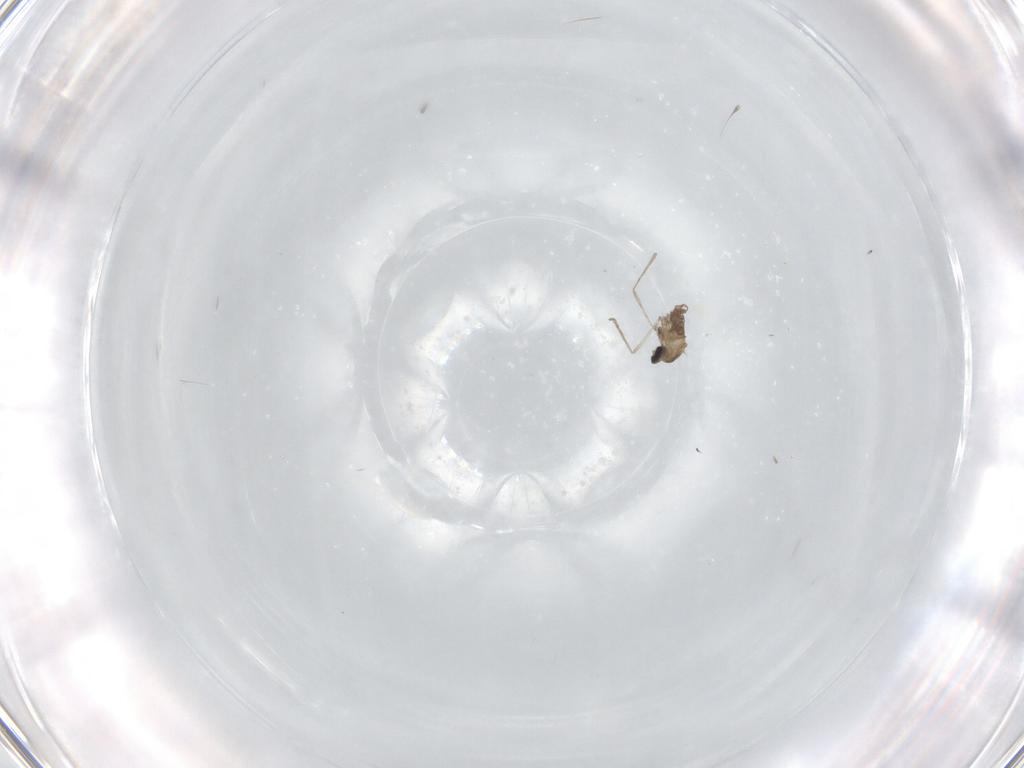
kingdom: Animalia
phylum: Arthropoda
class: Insecta
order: Diptera
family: Cecidomyiidae
